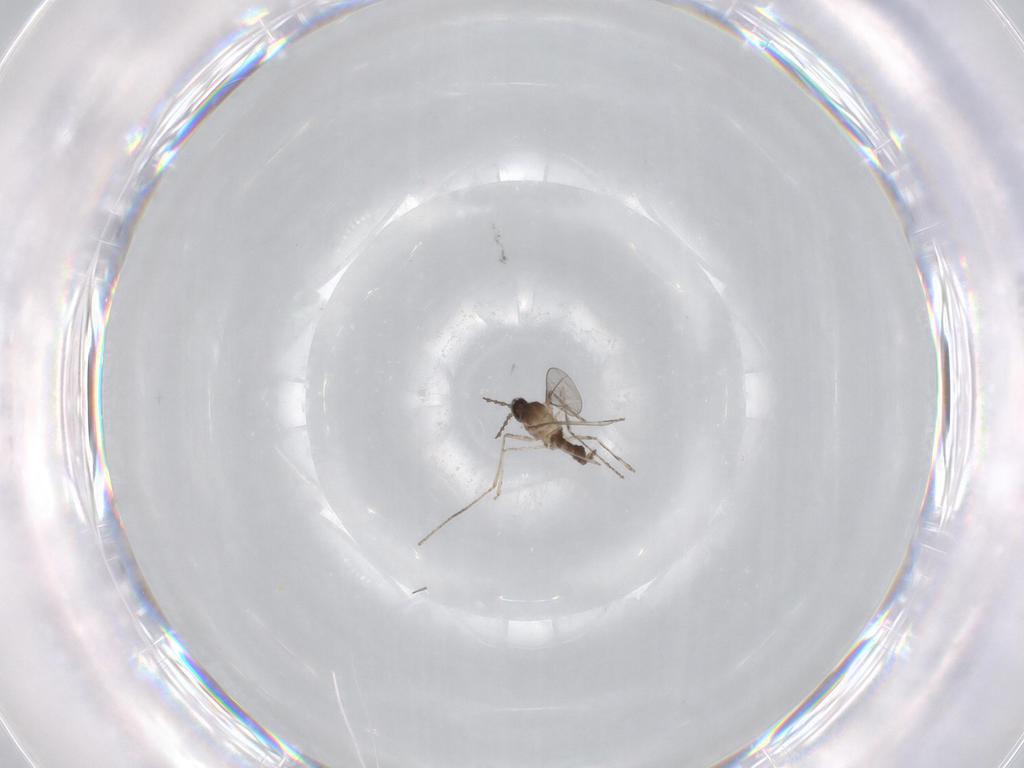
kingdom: Animalia
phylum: Arthropoda
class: Insecta
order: Diptera
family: Cecidomyiidae
